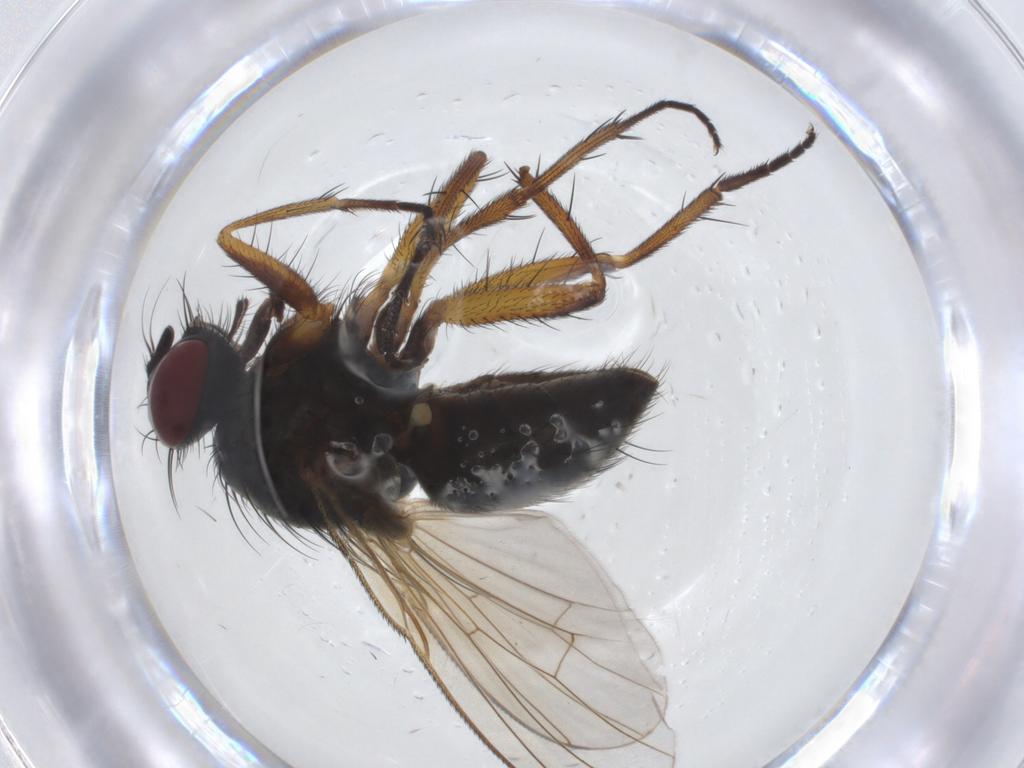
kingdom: Animalia
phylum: Arthropoda
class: Insecta
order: Diptera
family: Muscidae
